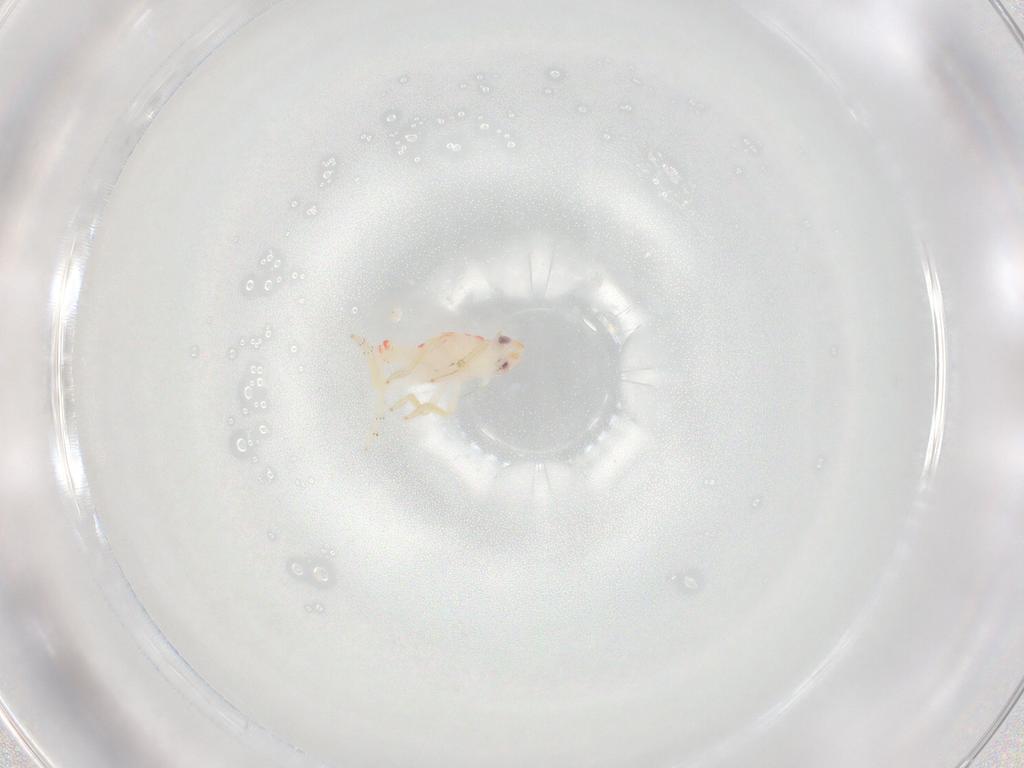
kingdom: Animalia
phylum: Arthropoda
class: Insecta
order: Hemiptera
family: Tropiduchidae
